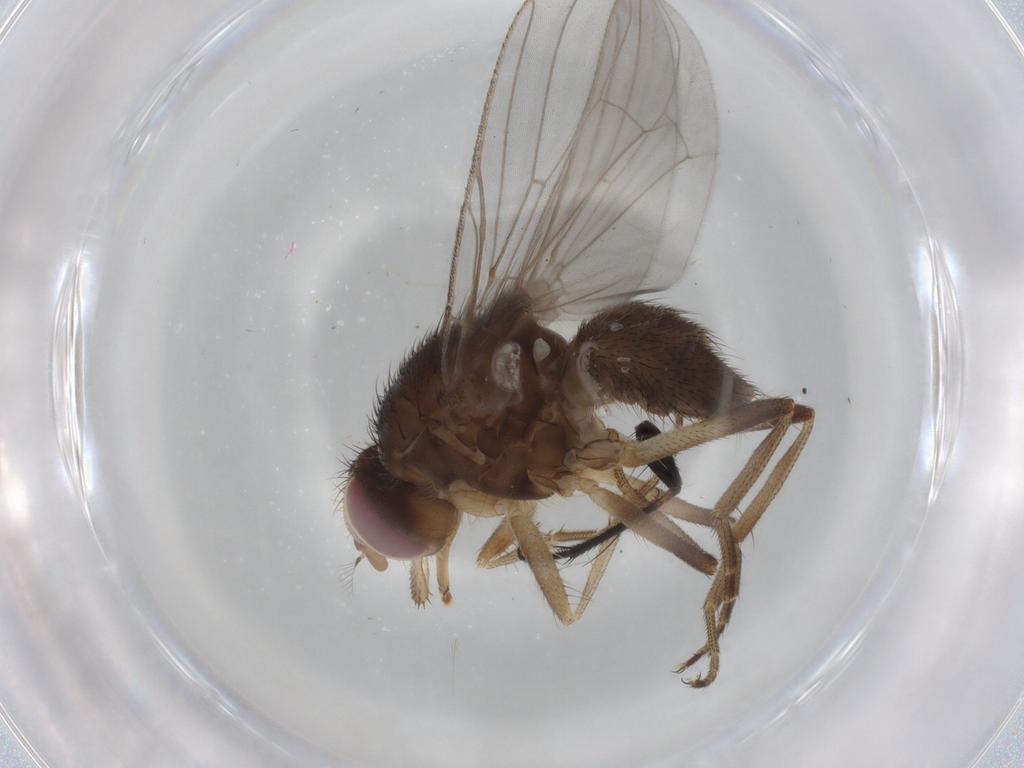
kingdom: Animalia
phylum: Arthropoda
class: Insecta
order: Diptera
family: Muscidae
